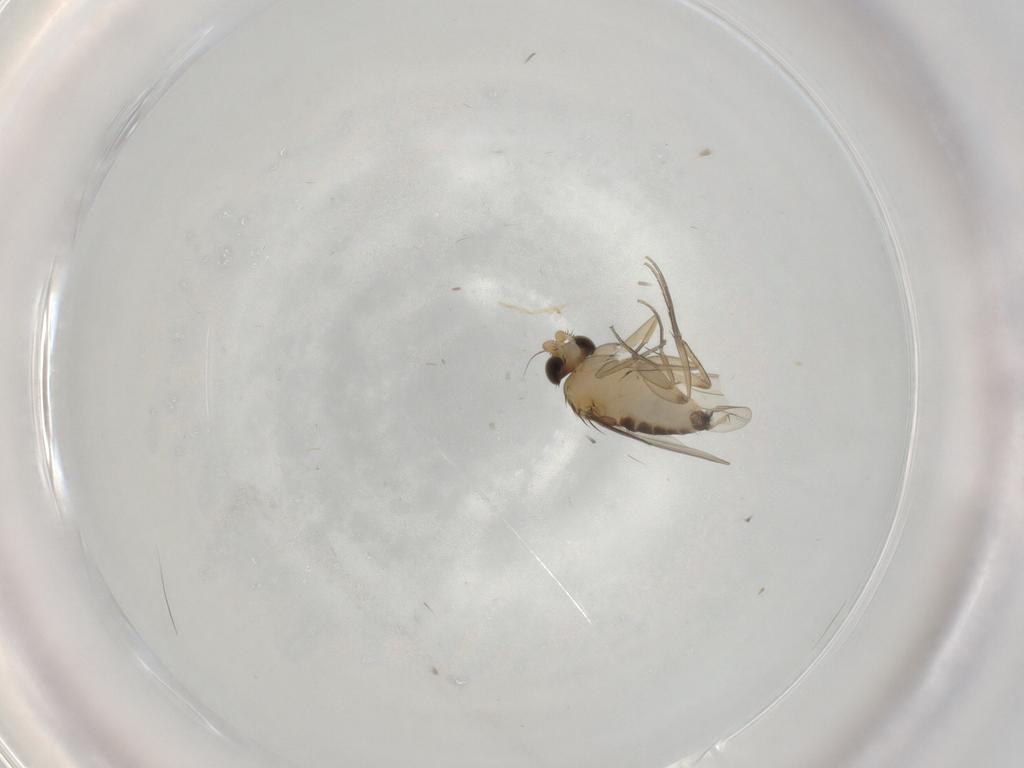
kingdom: Animalia
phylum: Arthropoda
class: Insecta
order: Diptera
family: Phoridae
